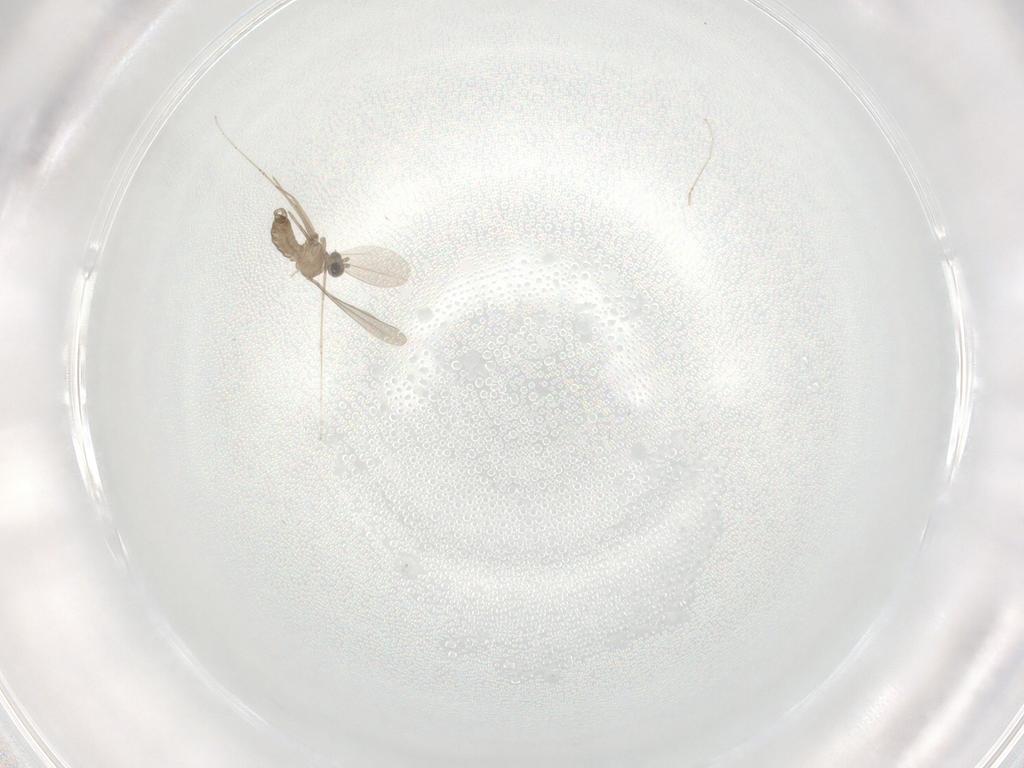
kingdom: Animalia
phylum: Arthropoda
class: Insecta
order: Diptera
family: Cecidomyiidae
